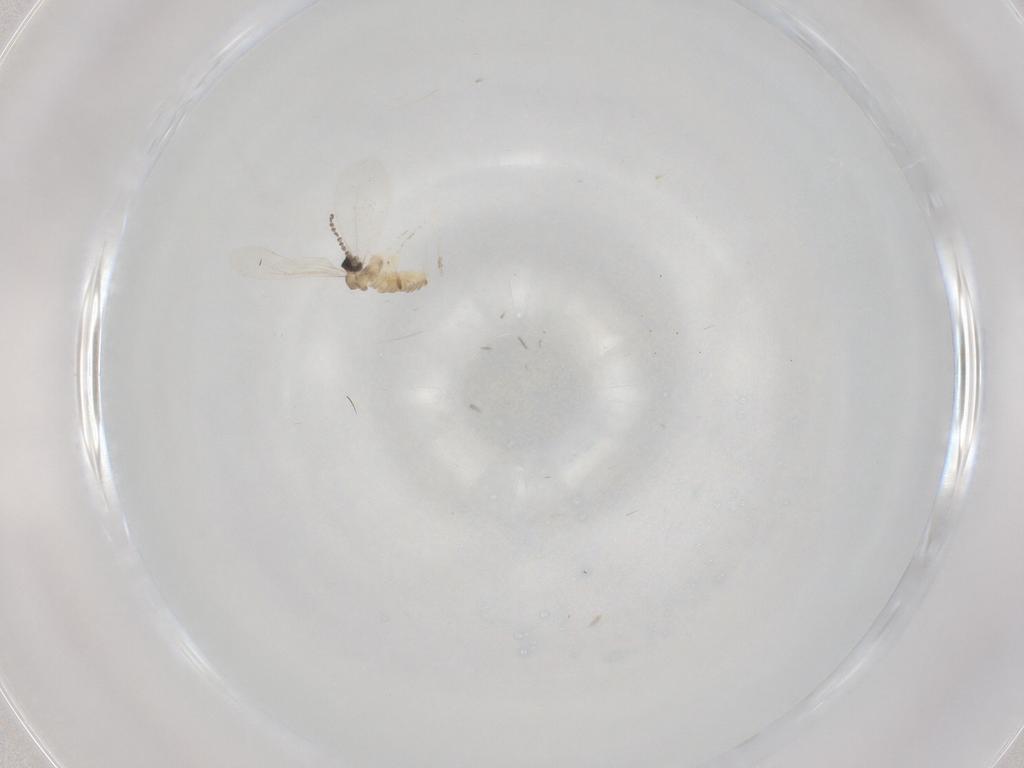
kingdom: Animalia
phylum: Arthropoda
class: Insecta
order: Diptera
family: Cecidomyiidae
